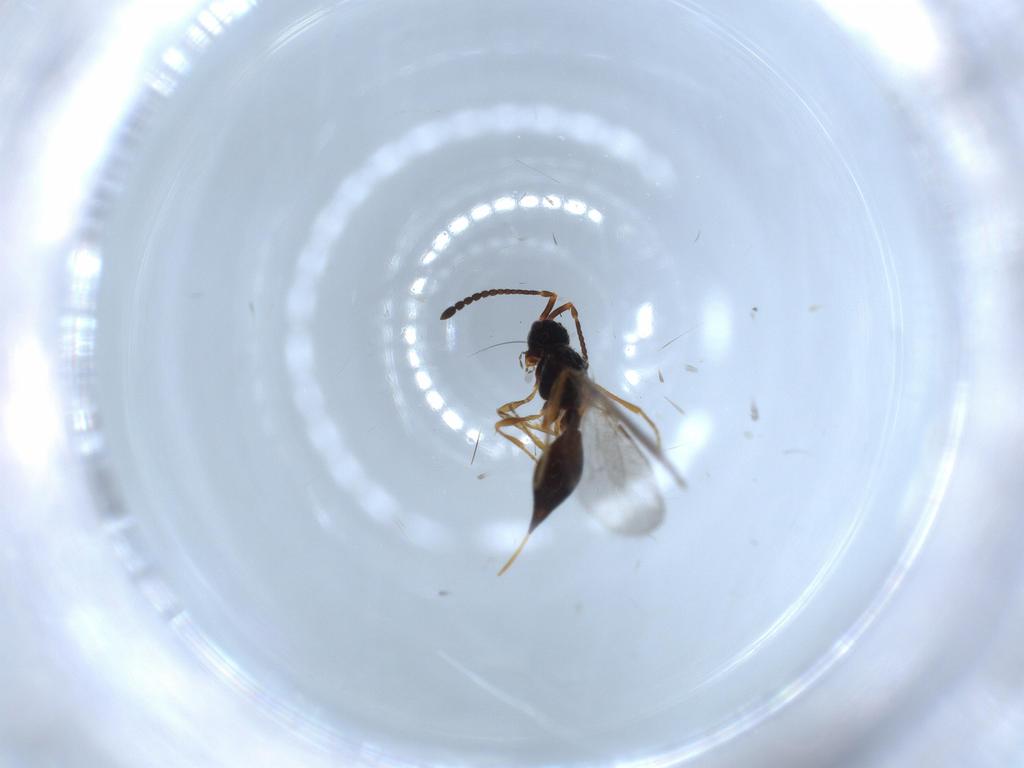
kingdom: Animalia
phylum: Arthropoda
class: Insecta
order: Hymenoptera
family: Diapriidae
